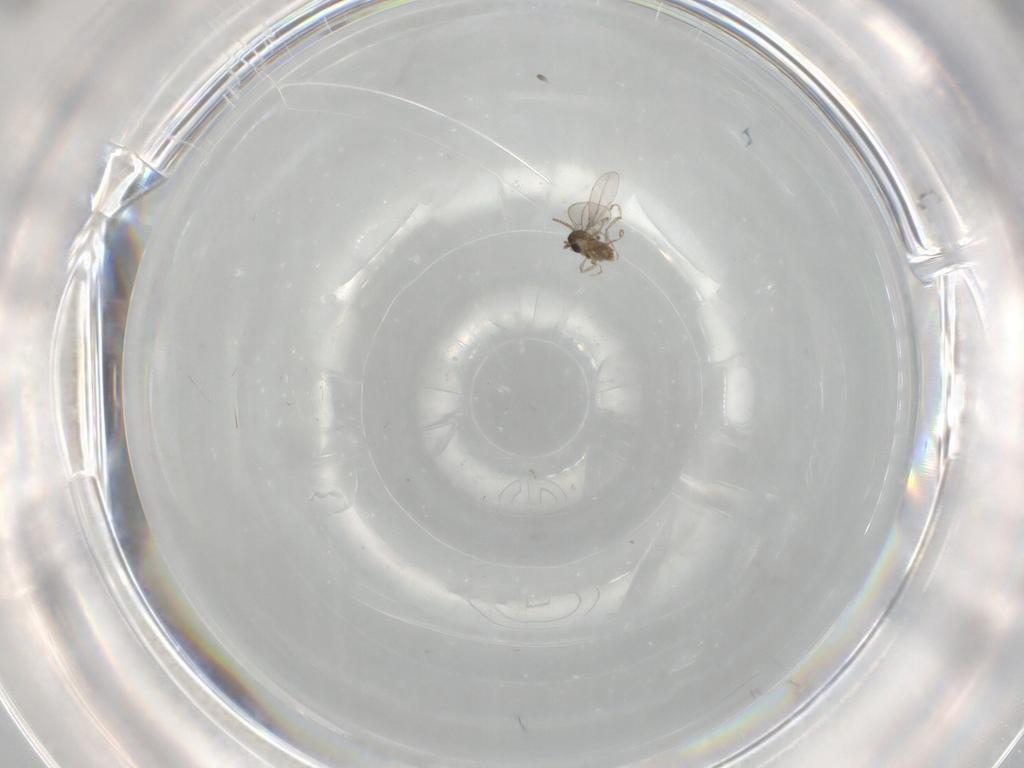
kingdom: Animalia
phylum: Arthropoda
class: Insecta
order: Diptera
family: Cecidomyiidae
